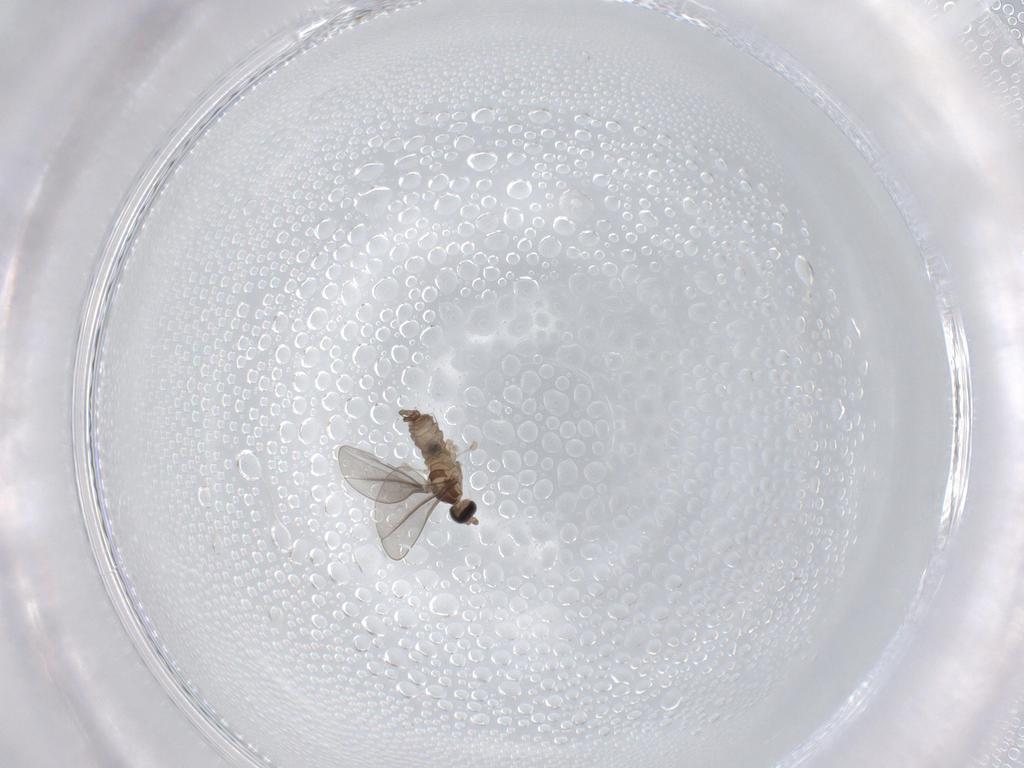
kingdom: Animalia
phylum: Arthropoda
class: Insecta
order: Diptera
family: Cecidomyiidae
